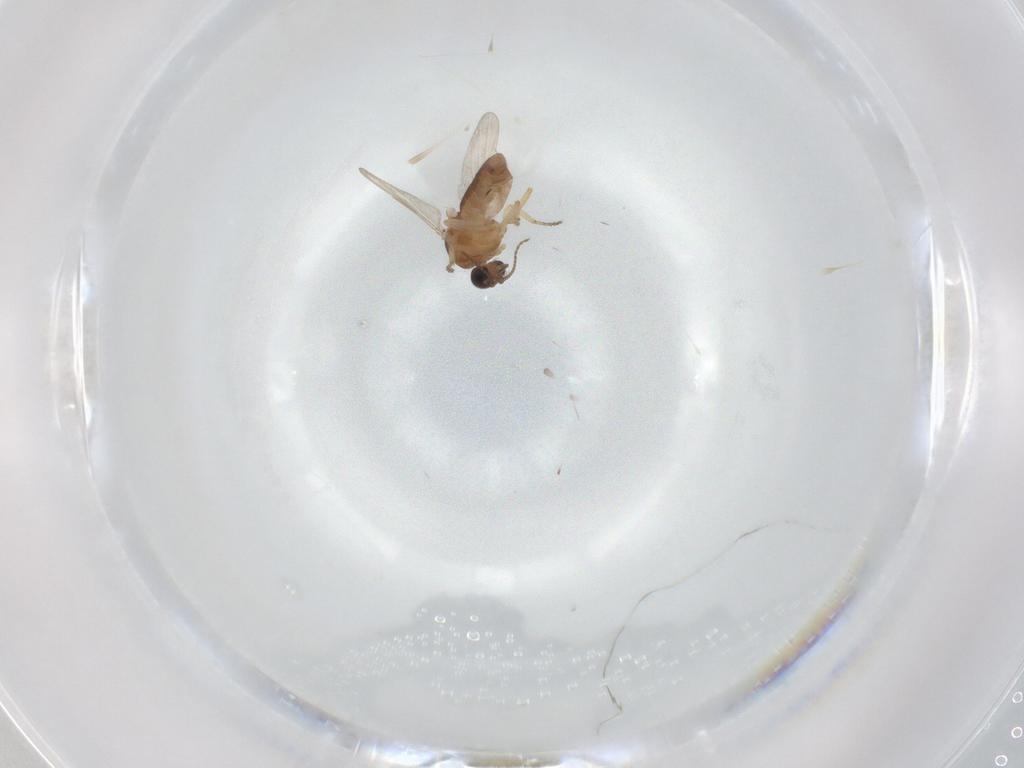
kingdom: Animalia
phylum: Arthropoda
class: Insecta
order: Diptera
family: Ceratopogonidae
